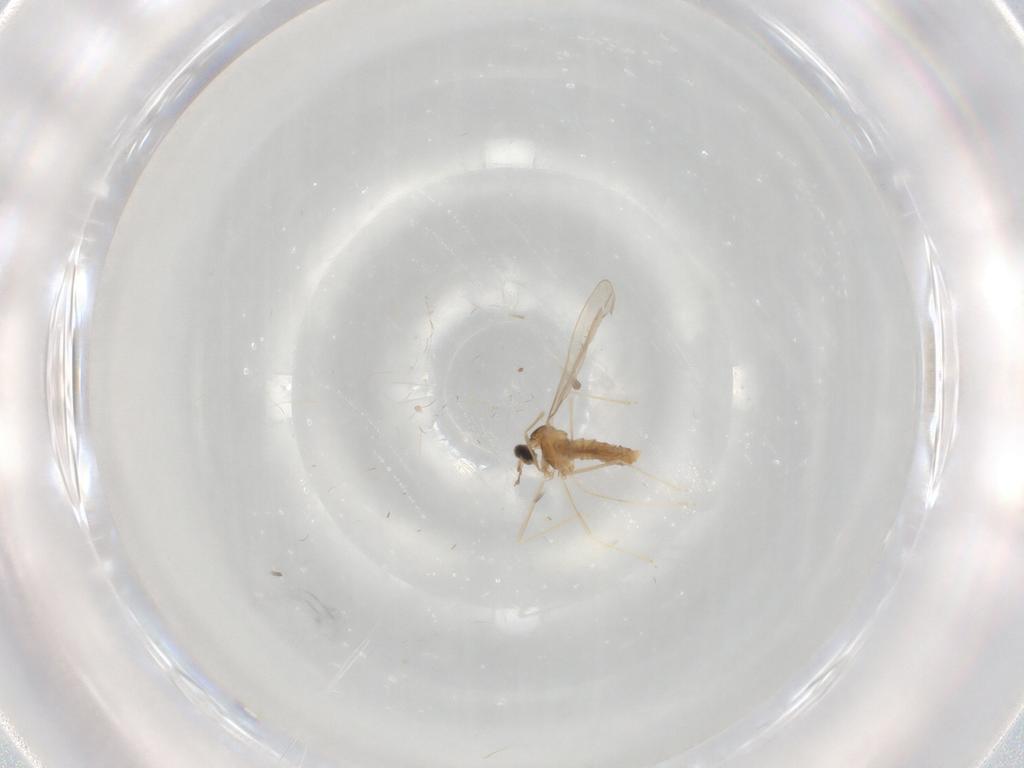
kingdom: Animalia
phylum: Arthropoda
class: Insecta
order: Diptera
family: Cecidomyiidae
